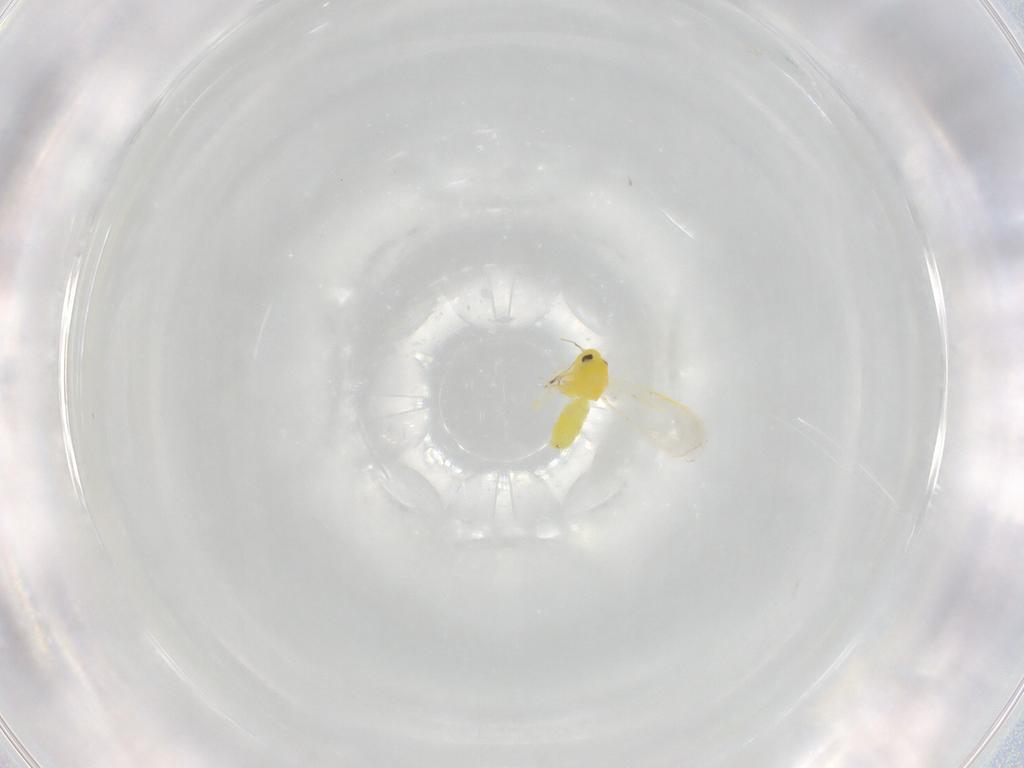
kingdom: Animalia
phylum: Arthropoda
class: Insecta
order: Hemiptera
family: Aleyrodidae
